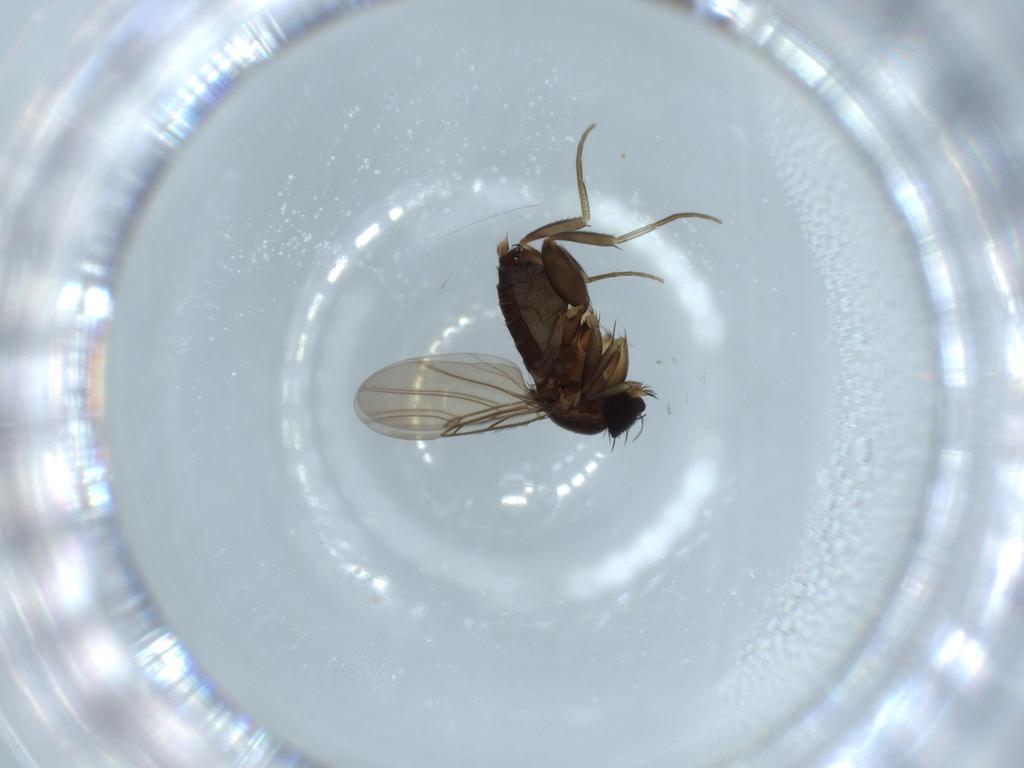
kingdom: Animalia
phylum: Arthropoda
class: Insecta
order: Diptera
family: Phoridae
